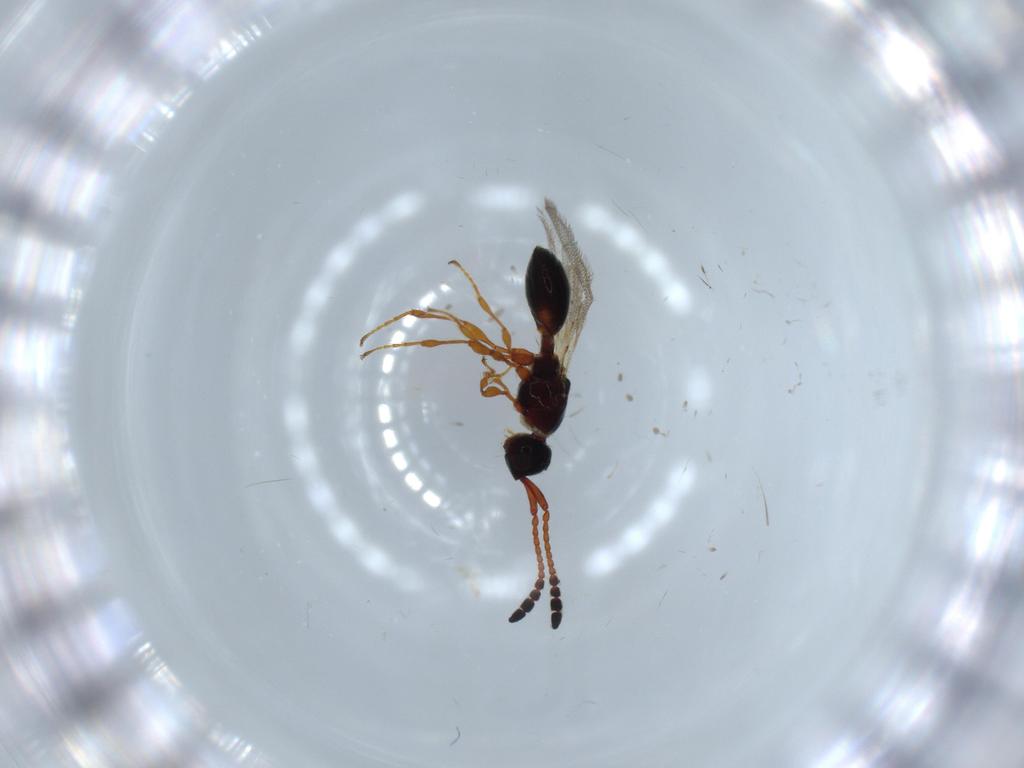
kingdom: Animalia
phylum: Arthropoda
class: Insecta
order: Hymenoptera
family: Diapriidae
